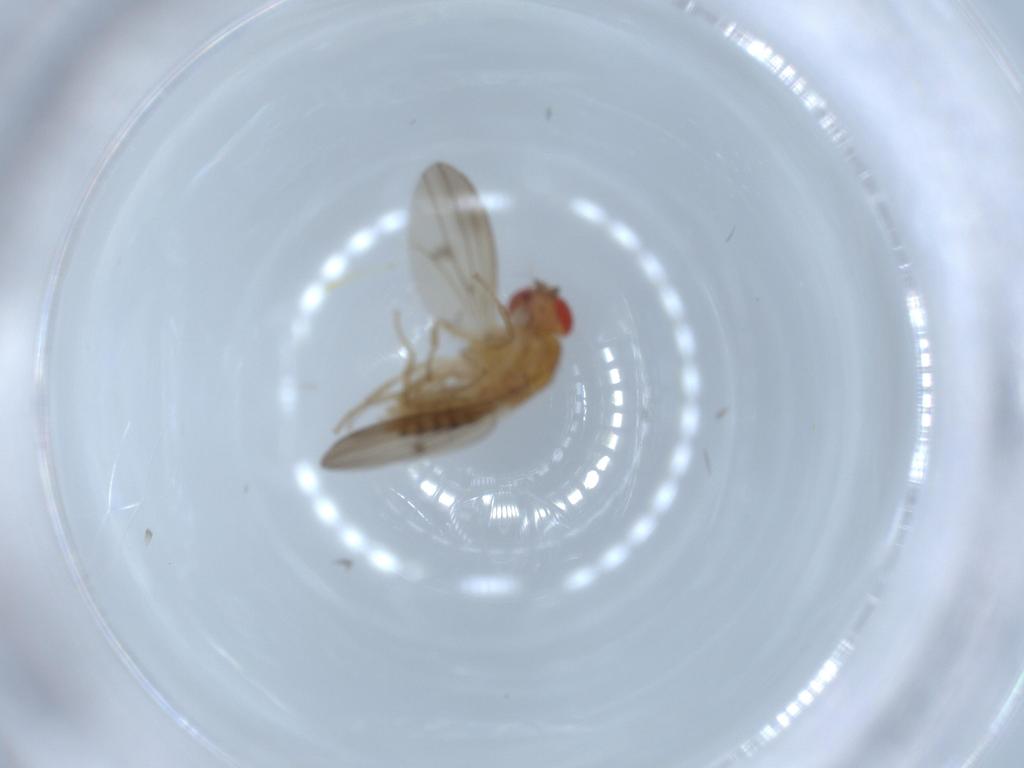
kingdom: Animalia
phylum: Arthropoda
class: Insecta
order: Diptera
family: Drosophilidae
